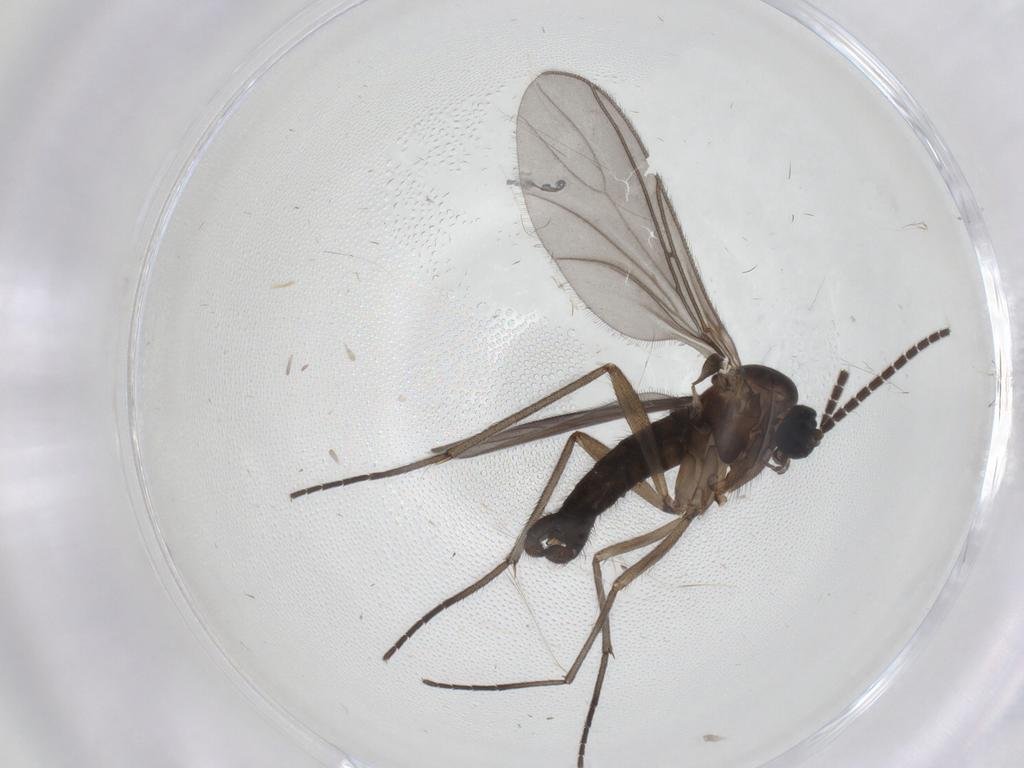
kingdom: Animalia
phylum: Arthropoda
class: Insecta
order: Diptera
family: Sciaridae
